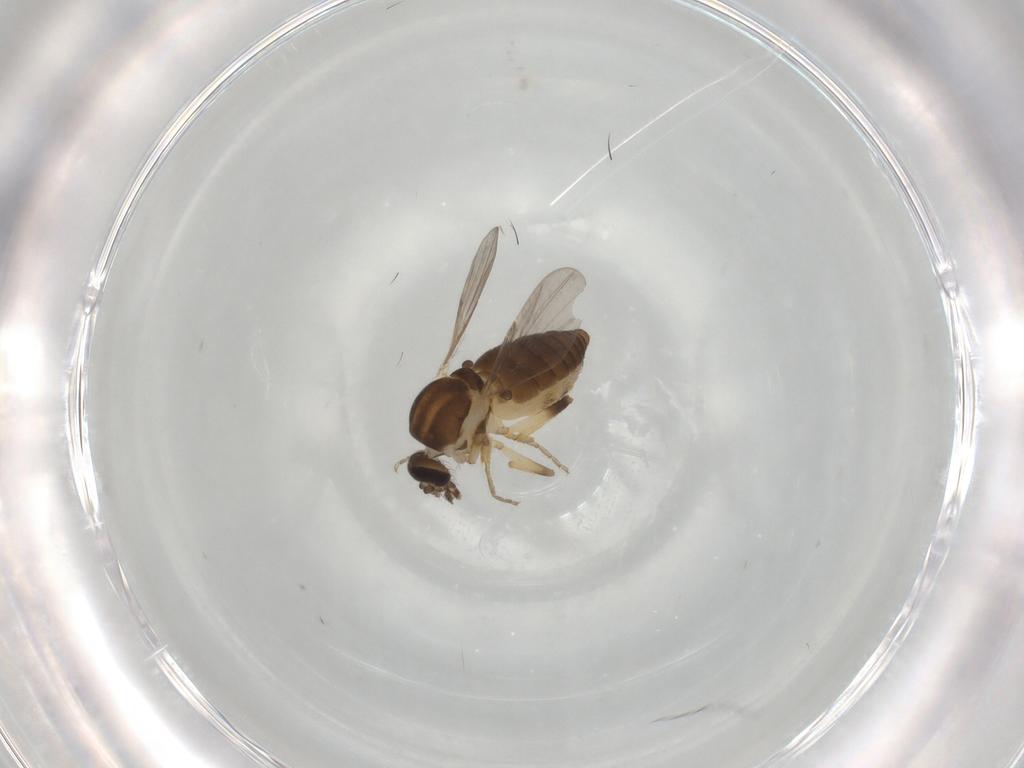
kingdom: Animalia
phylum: Arthropoda
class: Insecta
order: Diptera
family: Ceratopogonidae
